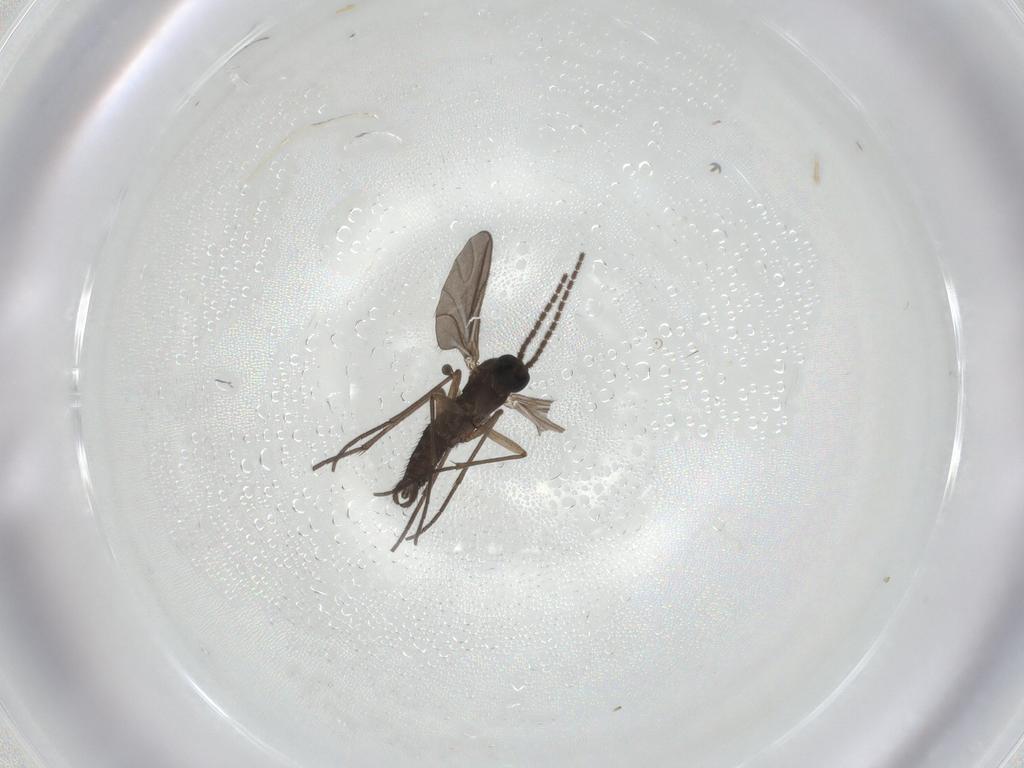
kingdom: Animalia
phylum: Arthropoda
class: Insecta
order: Diptera
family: Sciaridae
